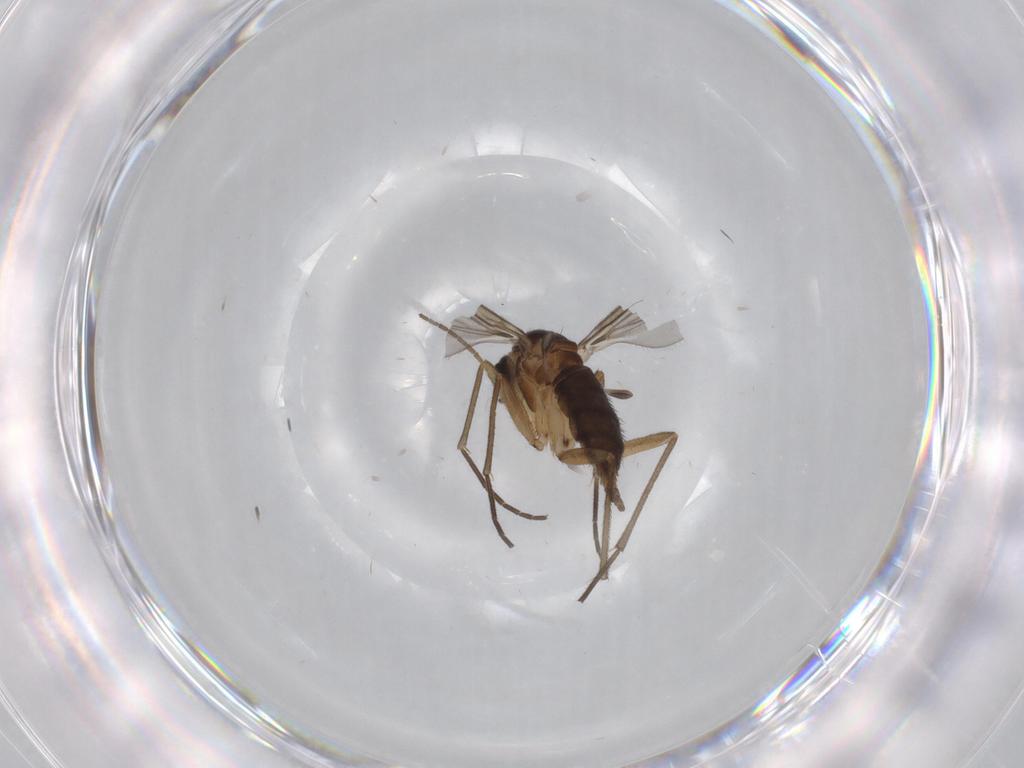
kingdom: Animalia
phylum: Arthropoda
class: Insecta
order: Diptera
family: Sciaridae
